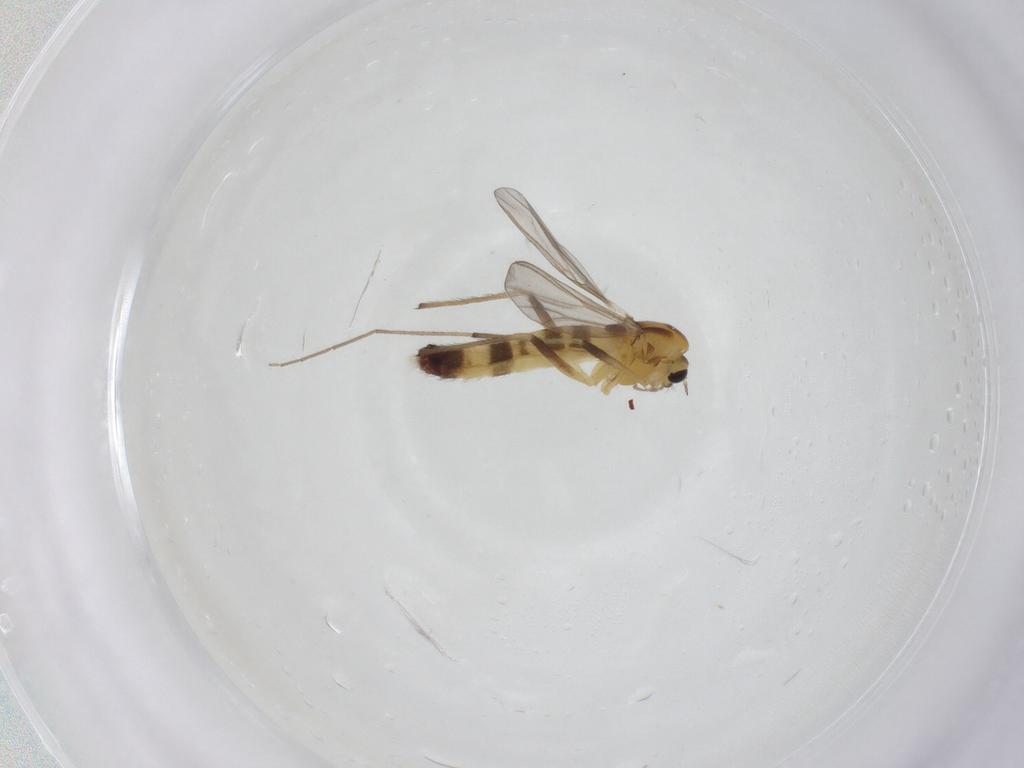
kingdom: Animalia
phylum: Arthropoda
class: Insecta
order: Diptera
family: Chironomidae
